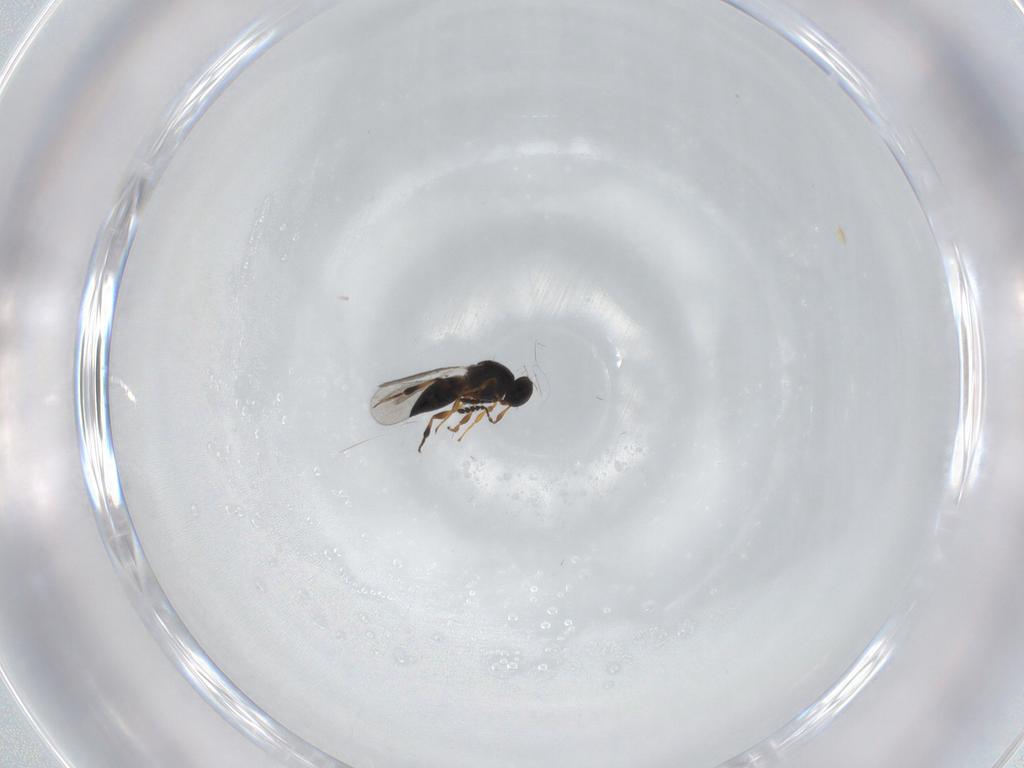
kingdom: Animalia
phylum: Arthropoda
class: Insecta
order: Hymenoptera
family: Platygastridae
